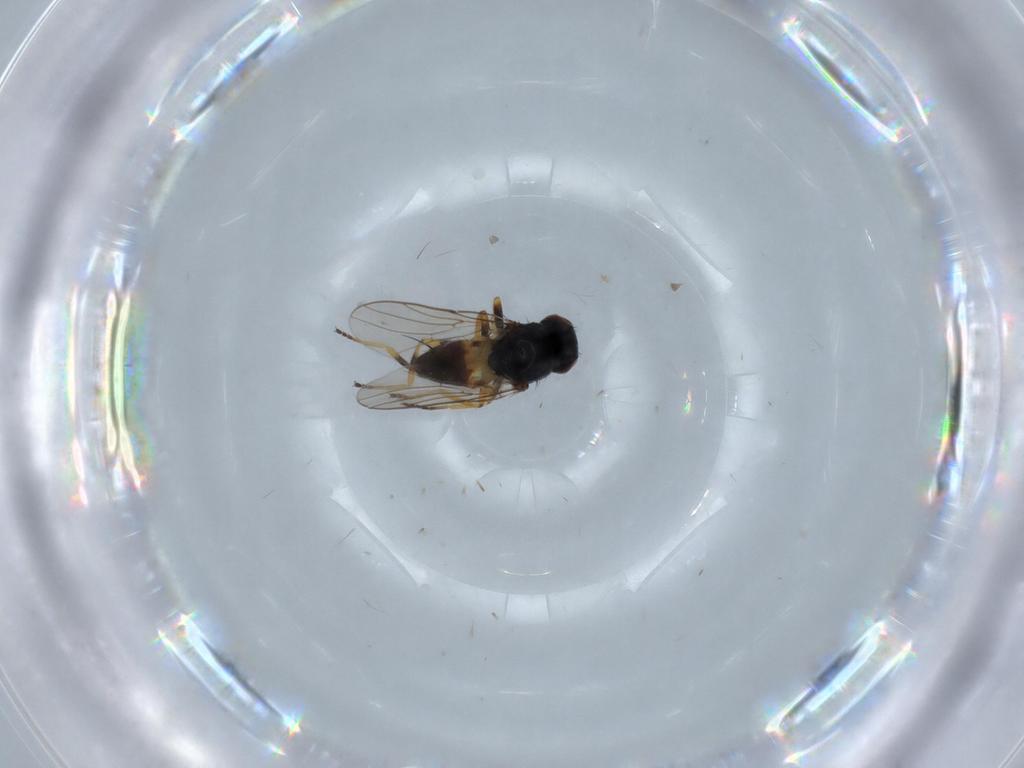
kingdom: Animalia
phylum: Arthropoda
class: Insecta
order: Diptera
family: Chloropidae
